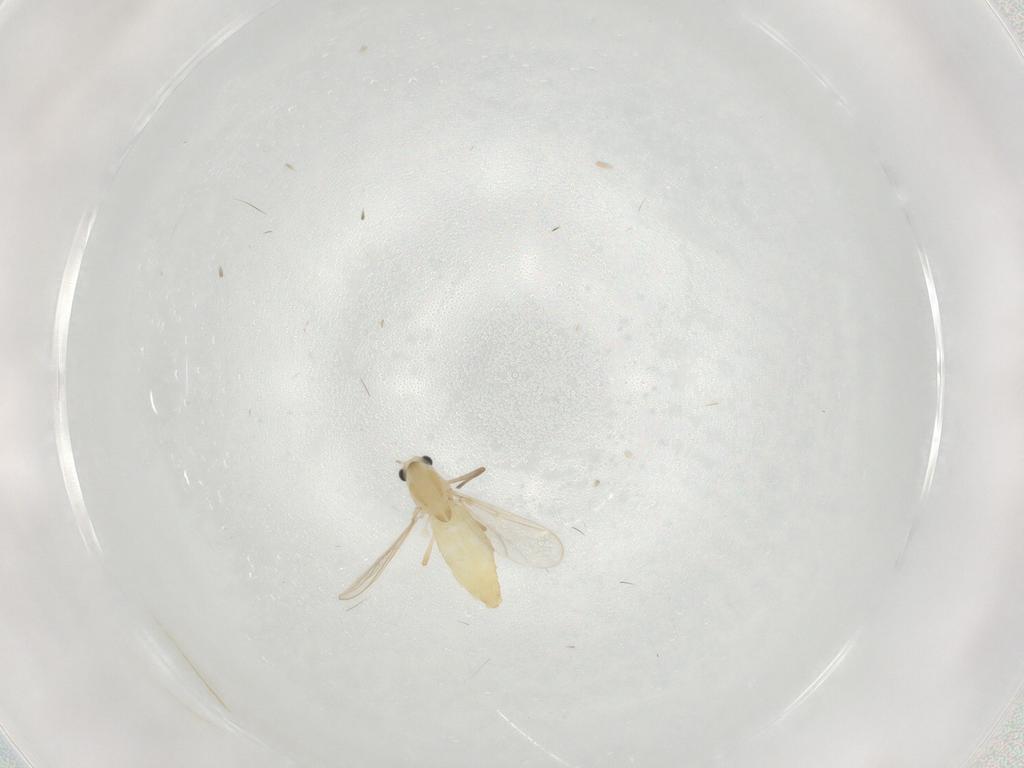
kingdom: Animalia
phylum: Arthropoda
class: Insecta
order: Diptera
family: Chironomidae
